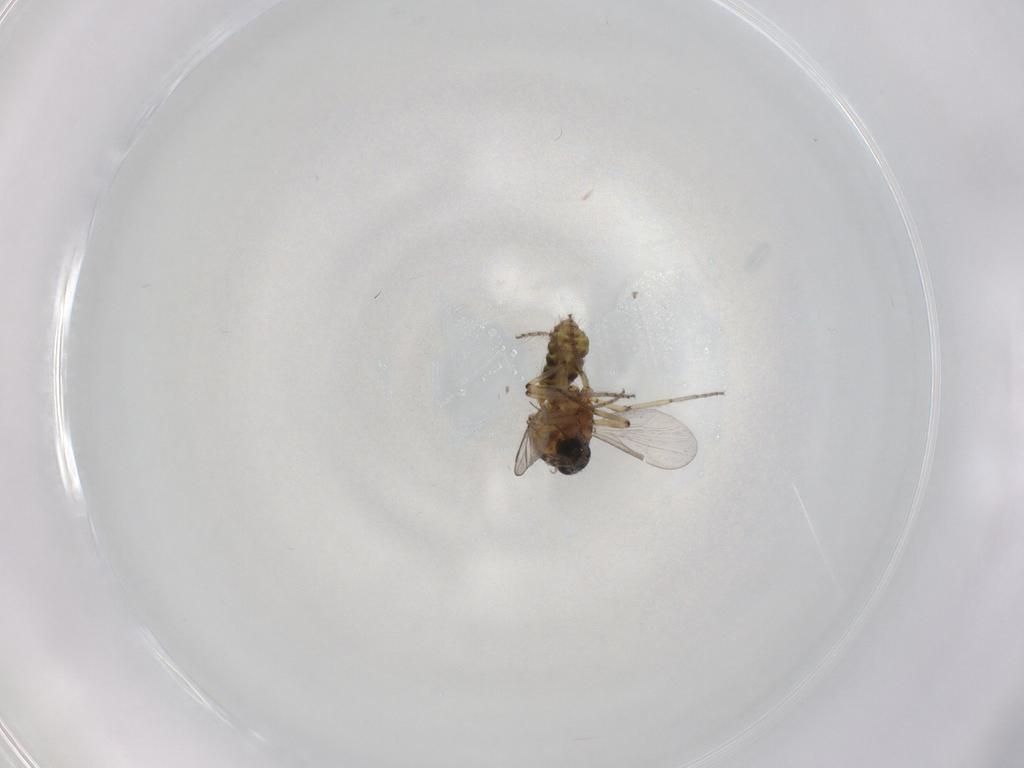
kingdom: Animalia
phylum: Arthropoda
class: Insecta
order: Diptera
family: Ceratopogonidae
